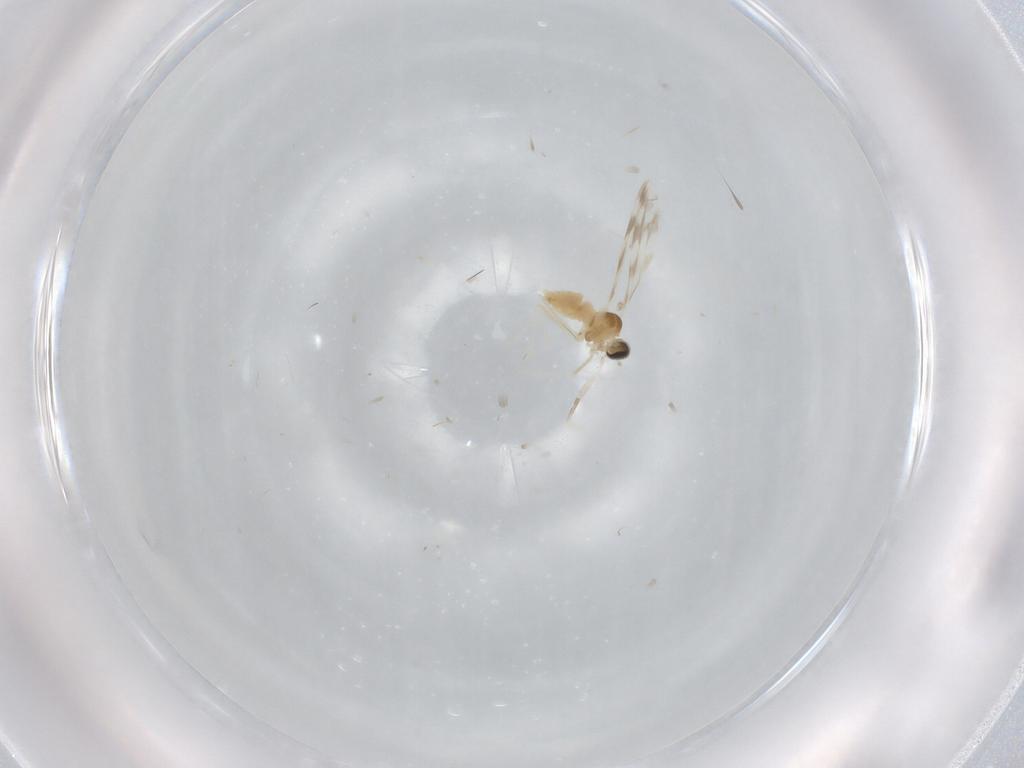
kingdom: Animalia
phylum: Arthropoda
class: Insecta
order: Diptera
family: Cecidomyiidae
